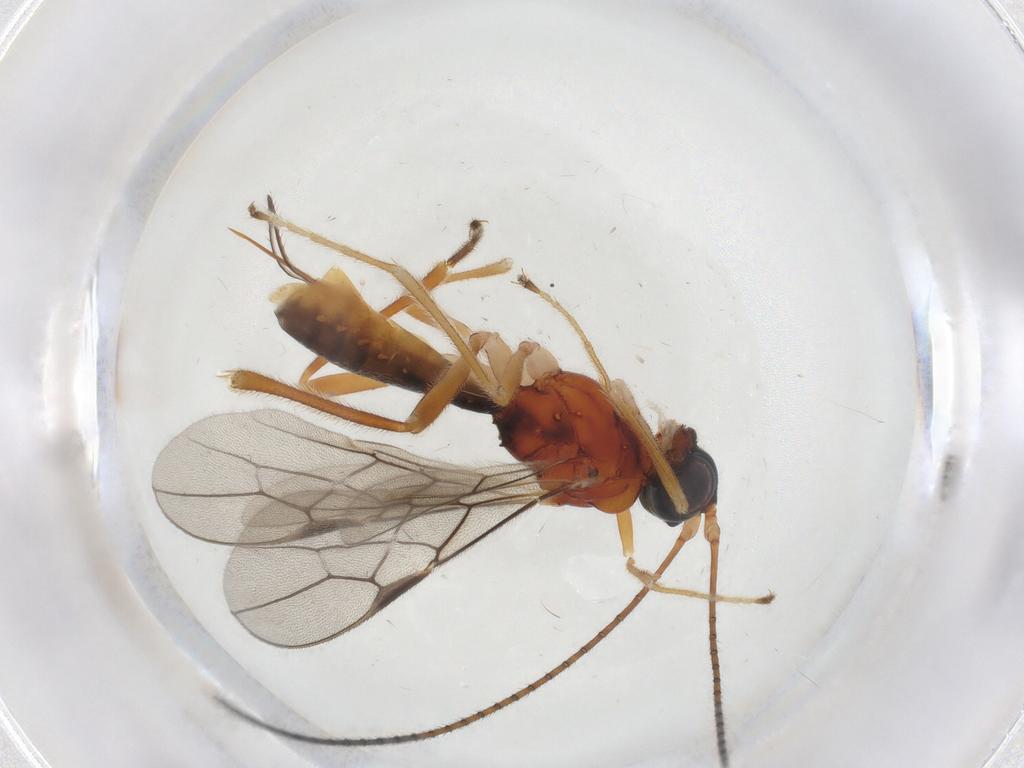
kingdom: Animalia
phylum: Arthropoda
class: Insecta
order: Hymenoptera
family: Braconidae
